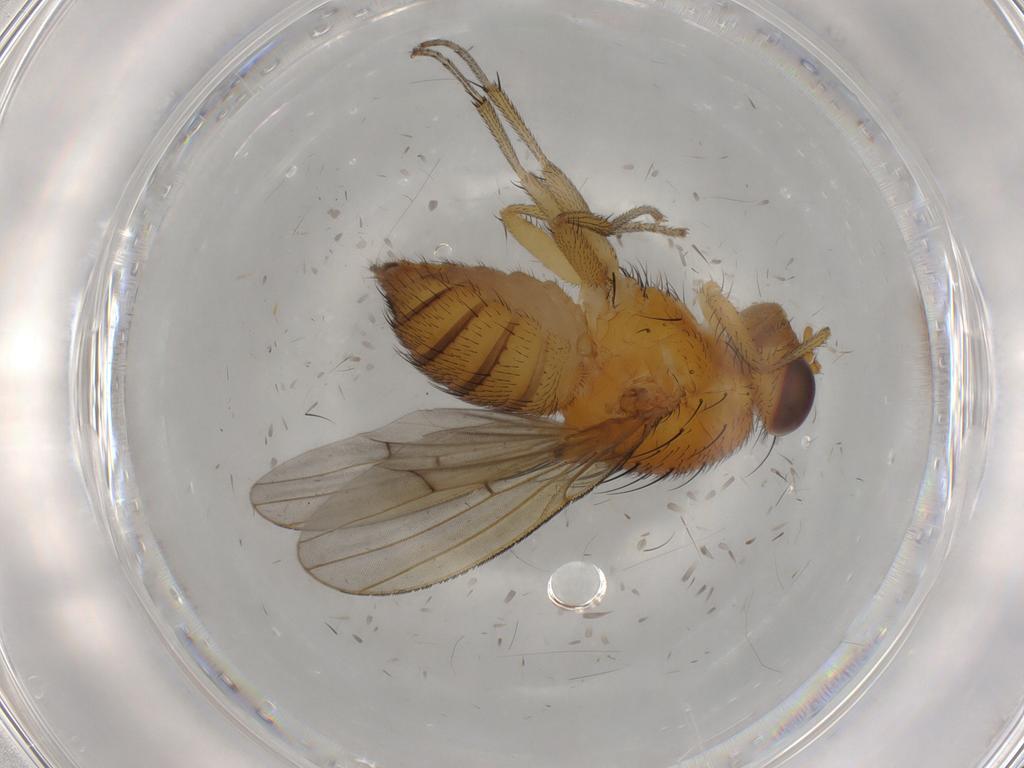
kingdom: Animalia
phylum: Arthropoda
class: Insecta
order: Diptera
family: Dolichopodidae
